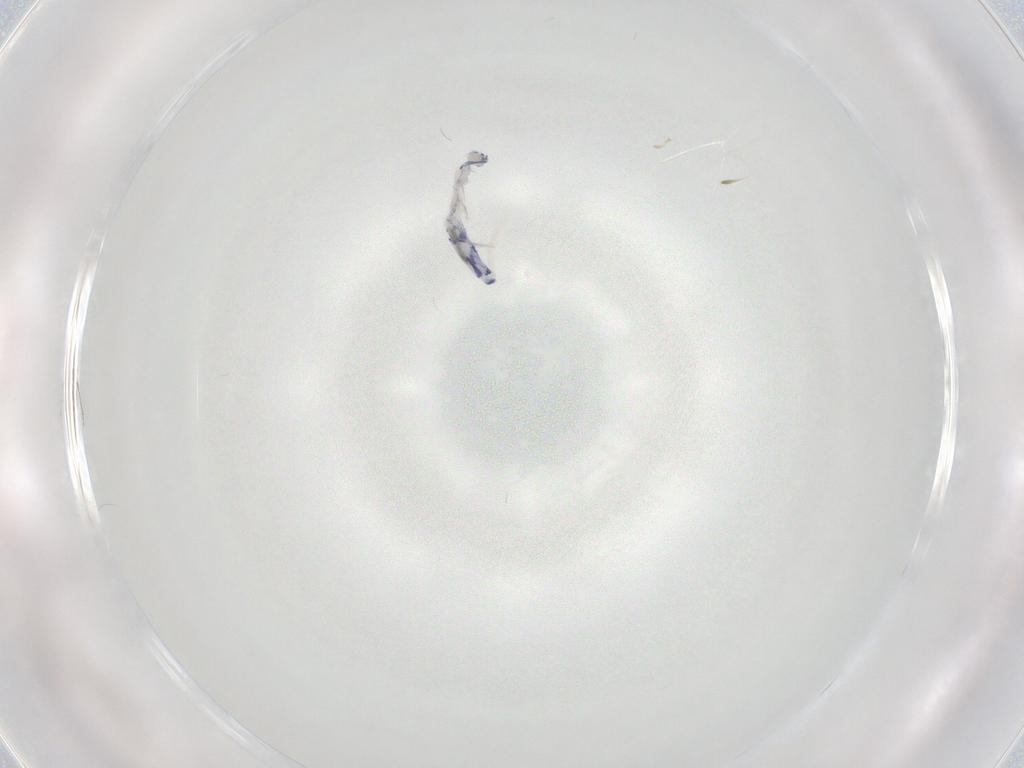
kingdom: Animalia
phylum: Arthropoda
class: Collembola
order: Entomobryomorpha
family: Entomobryidae
